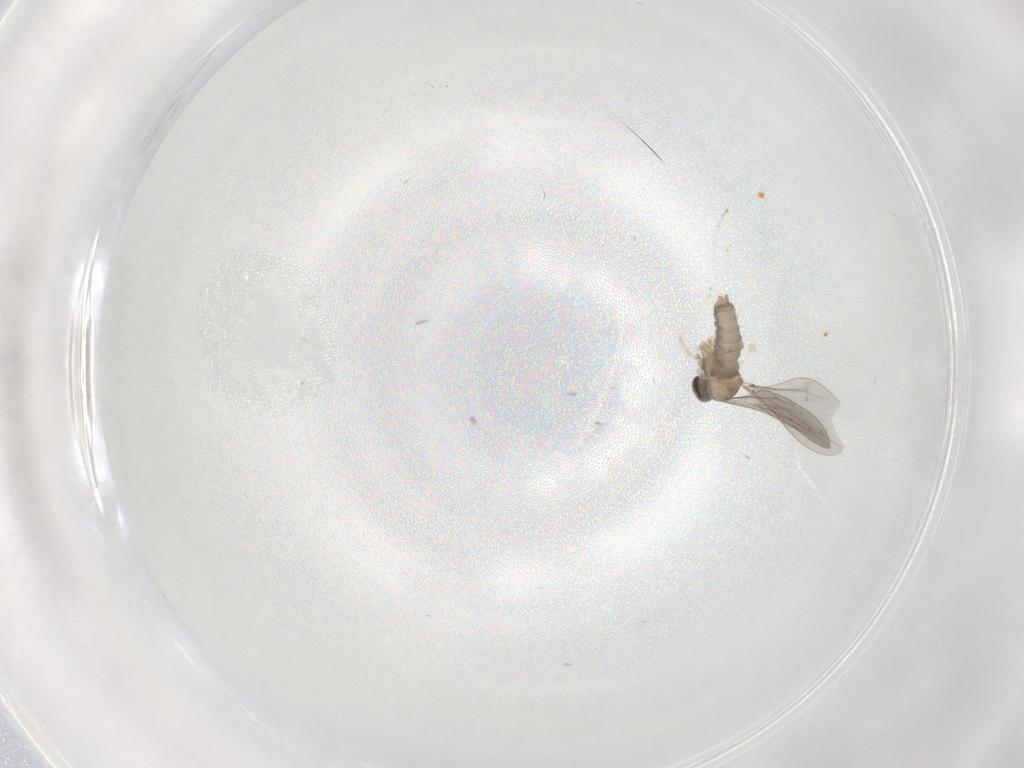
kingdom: Animalia
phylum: Arthropoda
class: Insecta
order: Diptera
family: Cecidomyiidae
